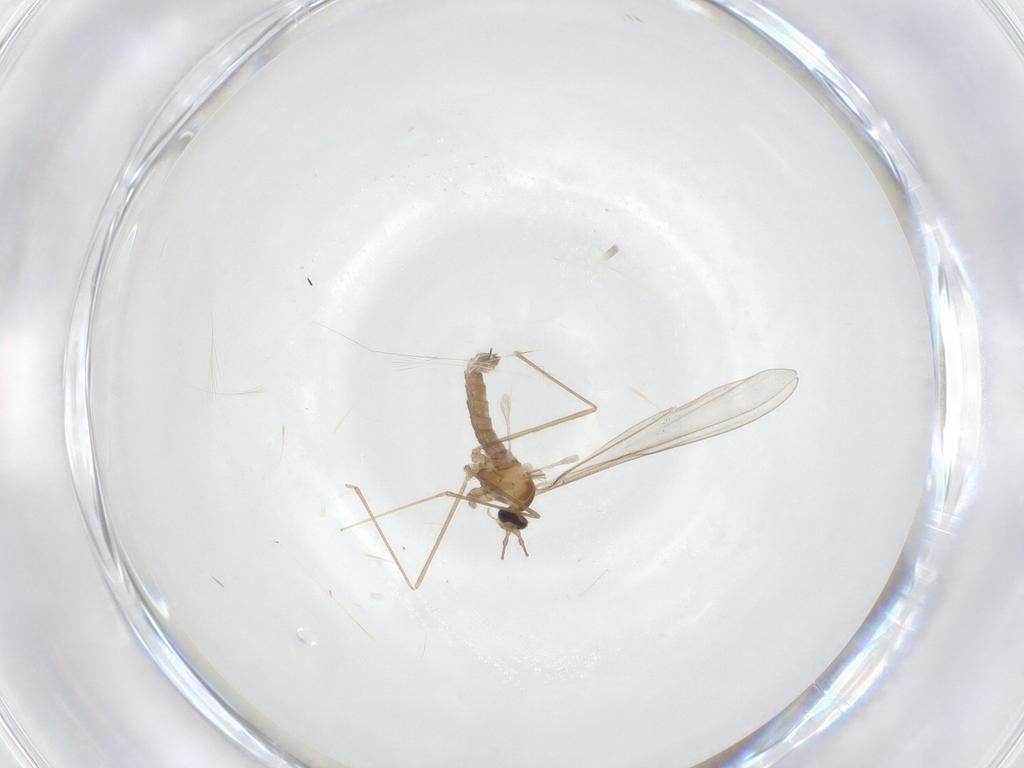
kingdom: Animalia
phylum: Arthropoda
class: Insecta
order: Diptera
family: Cecidomyiidae
